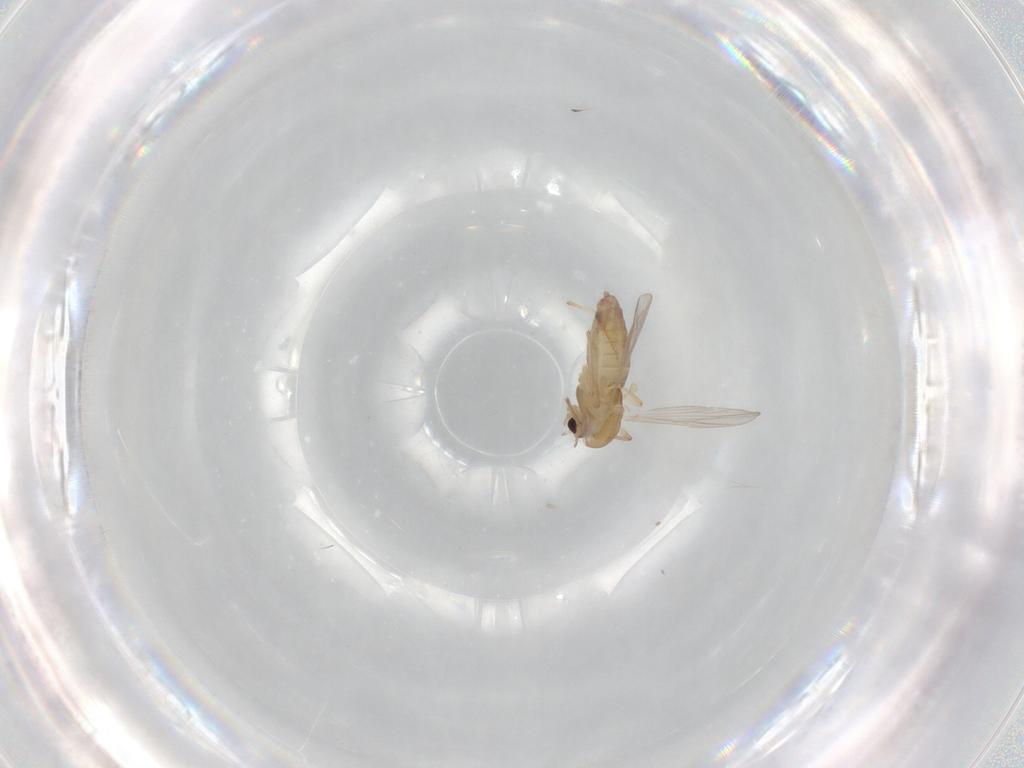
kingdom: Animalia
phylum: Arthropoda
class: Insecta
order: Diptera
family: Chironomidae
